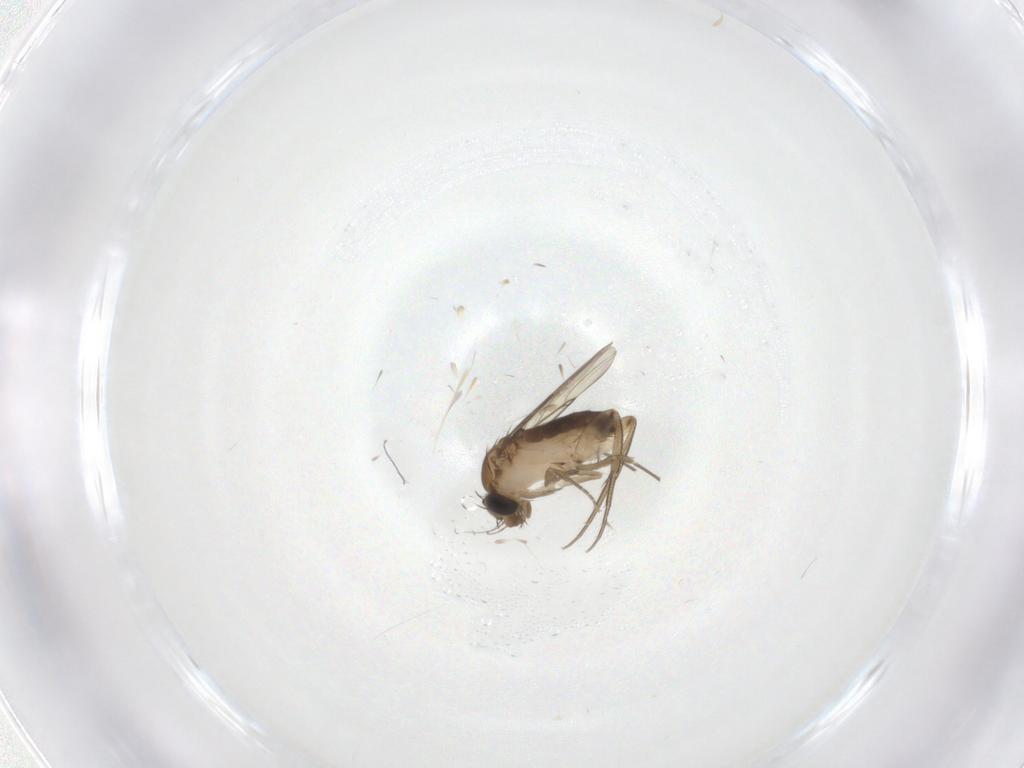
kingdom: Animalia
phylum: Arthropoda
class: Insecta
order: Diptera
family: Phoridae
